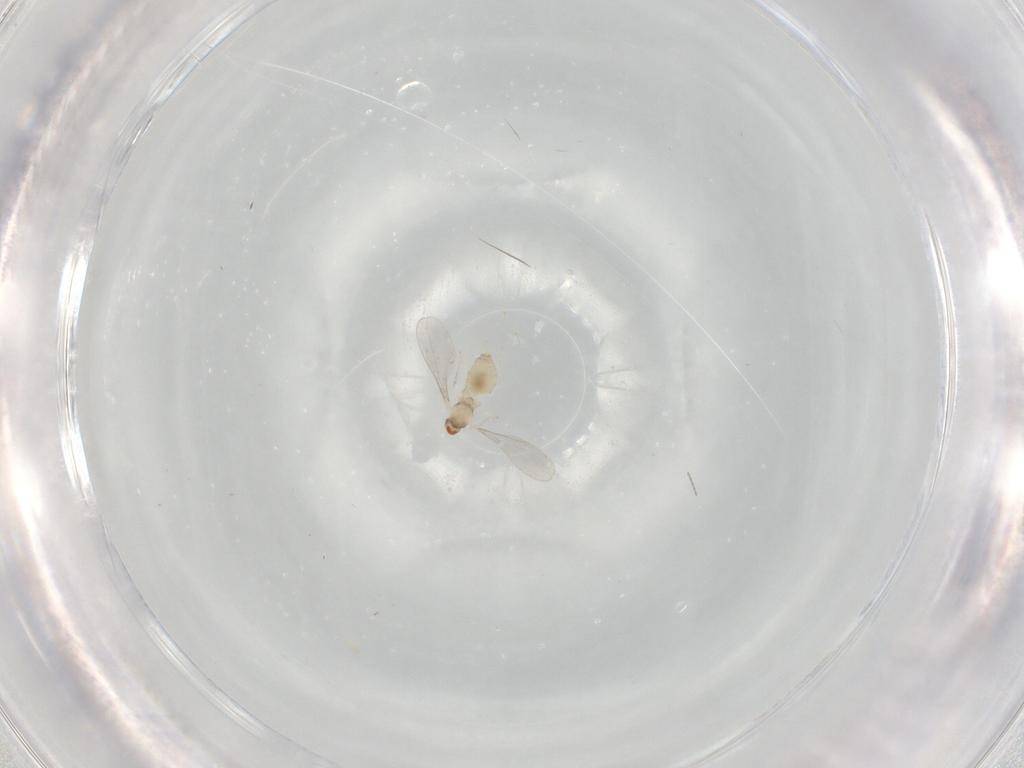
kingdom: Animalia
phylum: Arthropoda
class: Insecta
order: Diptera
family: Cecidomyiidae
